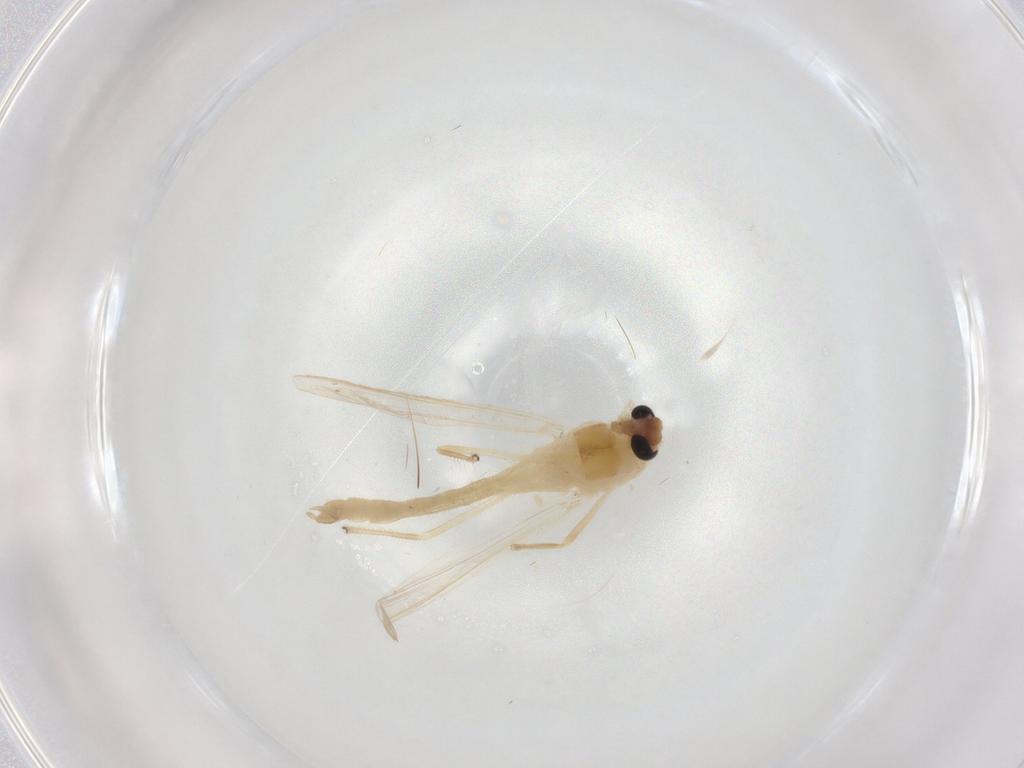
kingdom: Animalia
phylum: Arthropoda
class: Insecta
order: Diptera
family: Chironomidae
